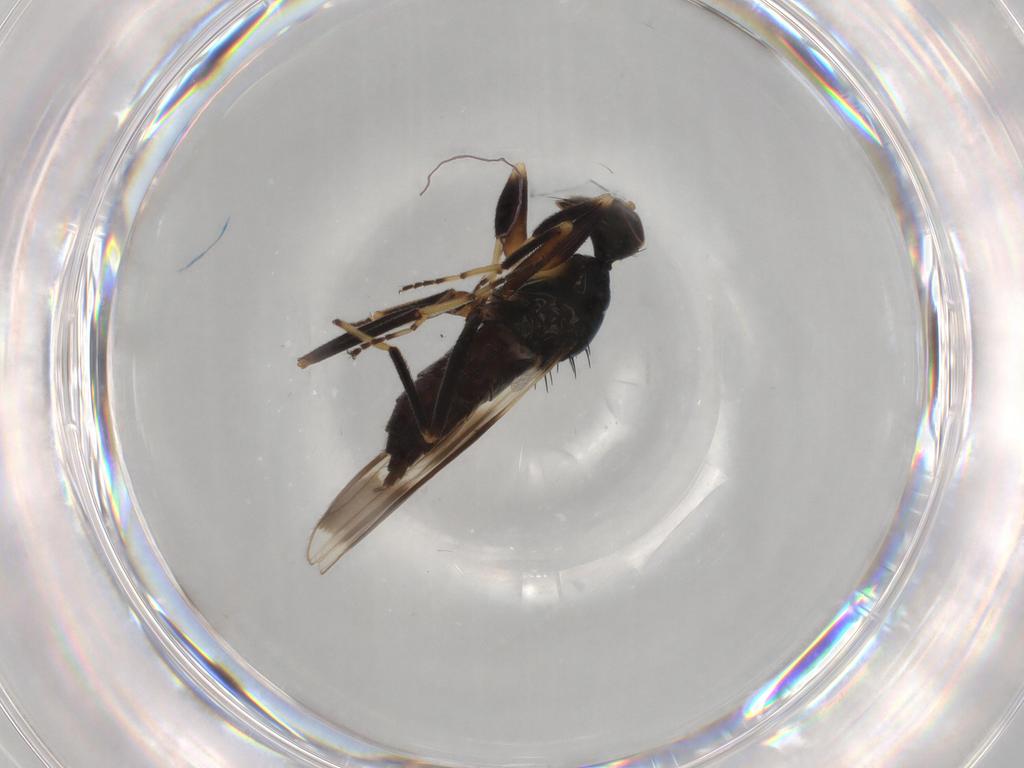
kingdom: Animalia
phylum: Arthropoda
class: Insecta
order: Diptera
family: Hybotidae
